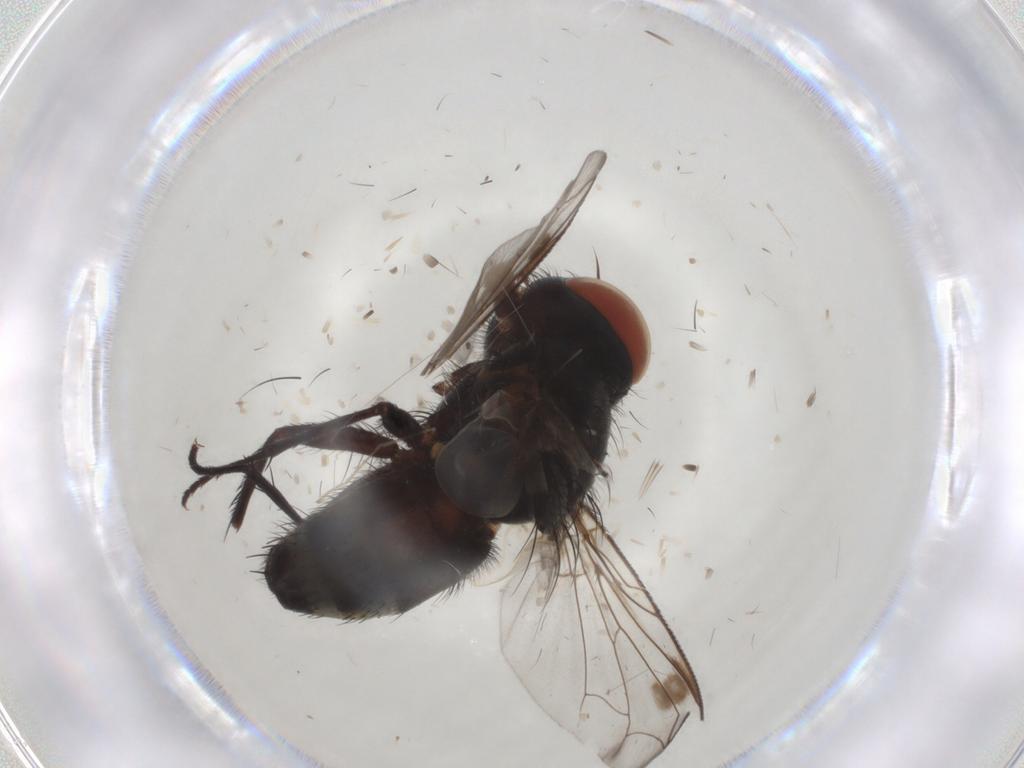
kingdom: Animalia
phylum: Arthropoda
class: Insecta
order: Diptera
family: Sarcophagidae
